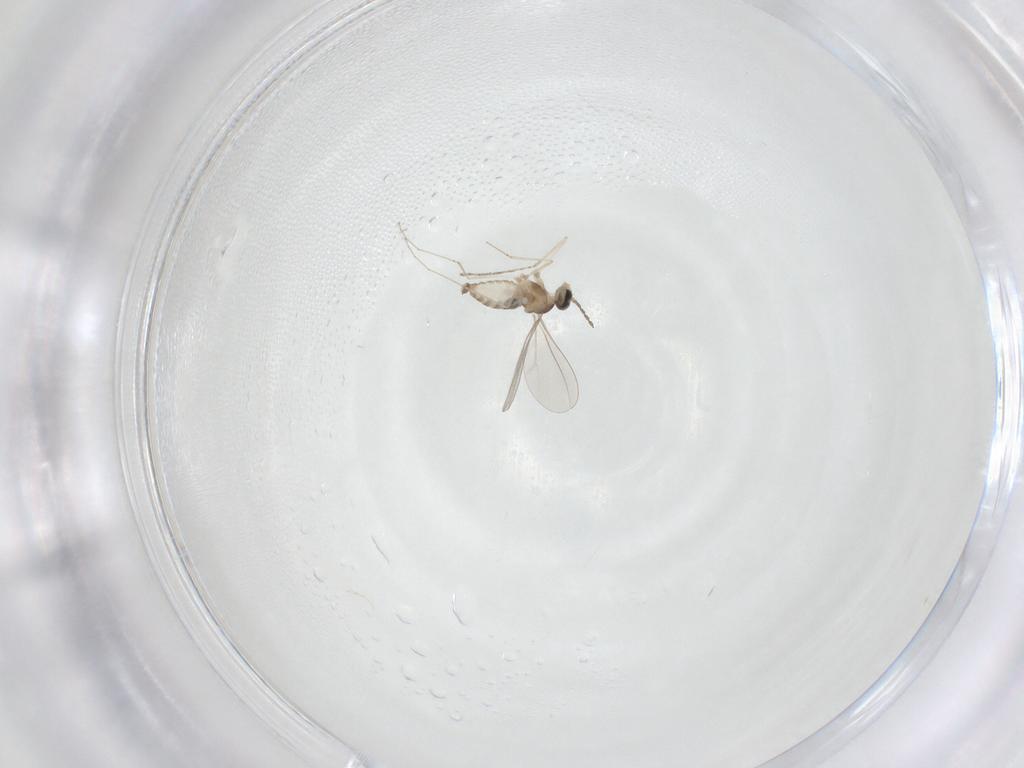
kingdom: Animalia
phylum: Arthropoda
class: Insecta
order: Diptera
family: Cecidomyiidae
